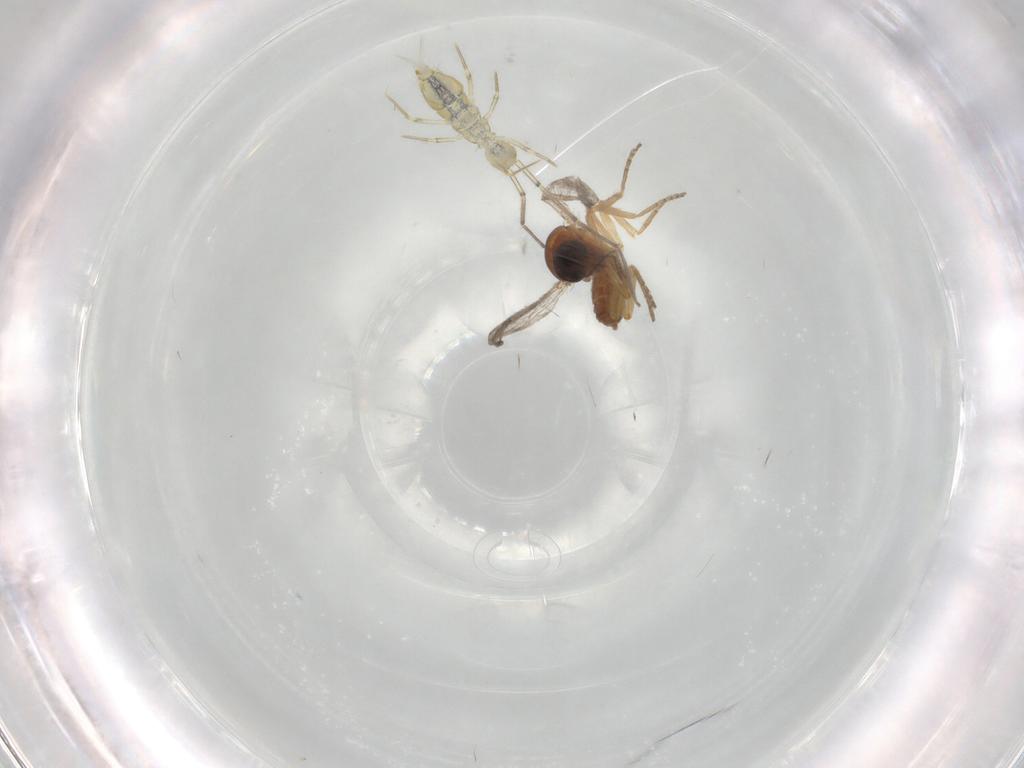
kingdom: Animalia
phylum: Arthropoda
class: Insecta
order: Diptera
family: Ceratopogonidae
